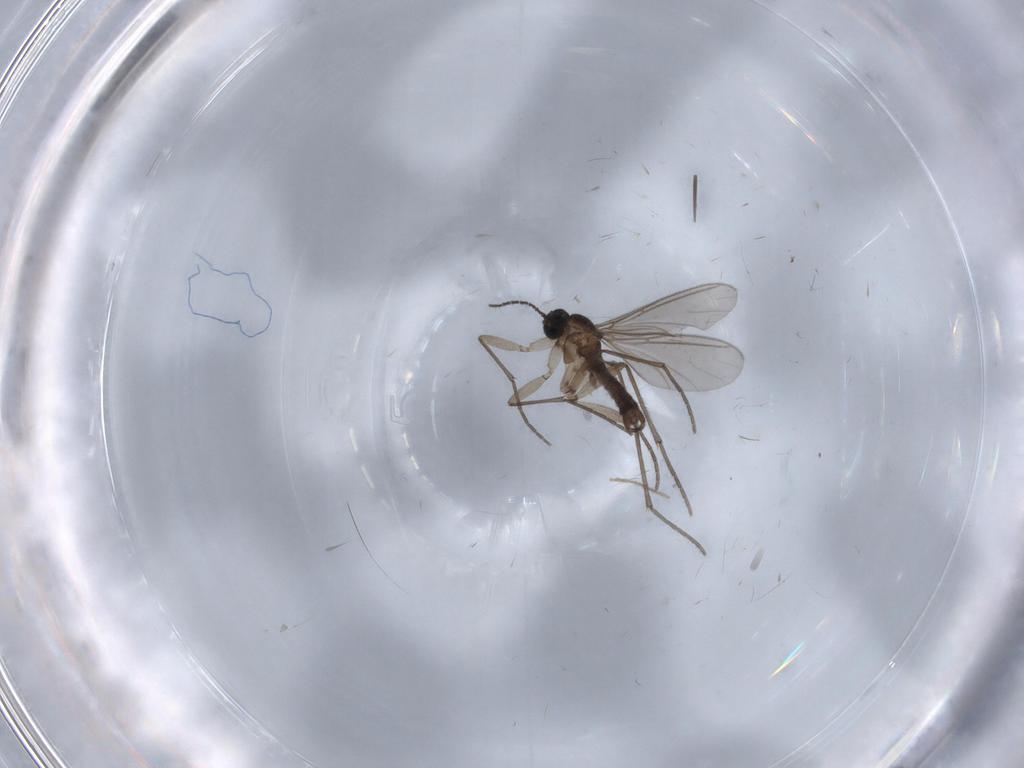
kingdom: Animalia
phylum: Arthropoda
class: Insecta
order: Diptera
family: Sciaridae
